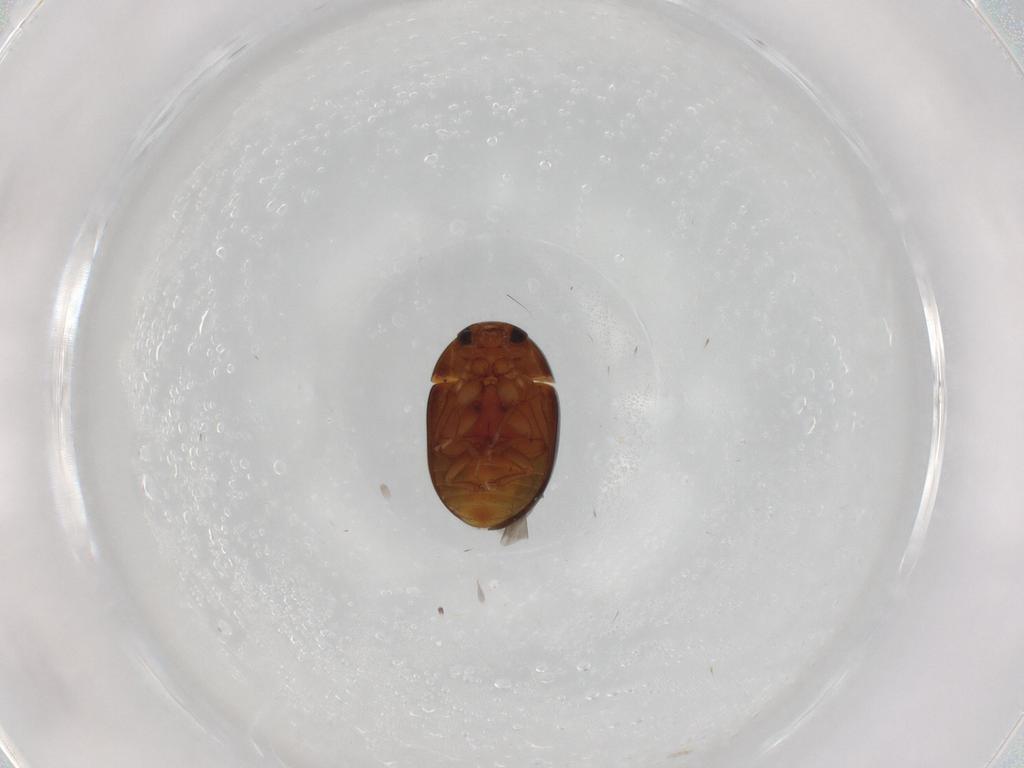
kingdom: Animalia
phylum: Arthropoda
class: Insecta
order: Coleoptera
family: Phalacridae
